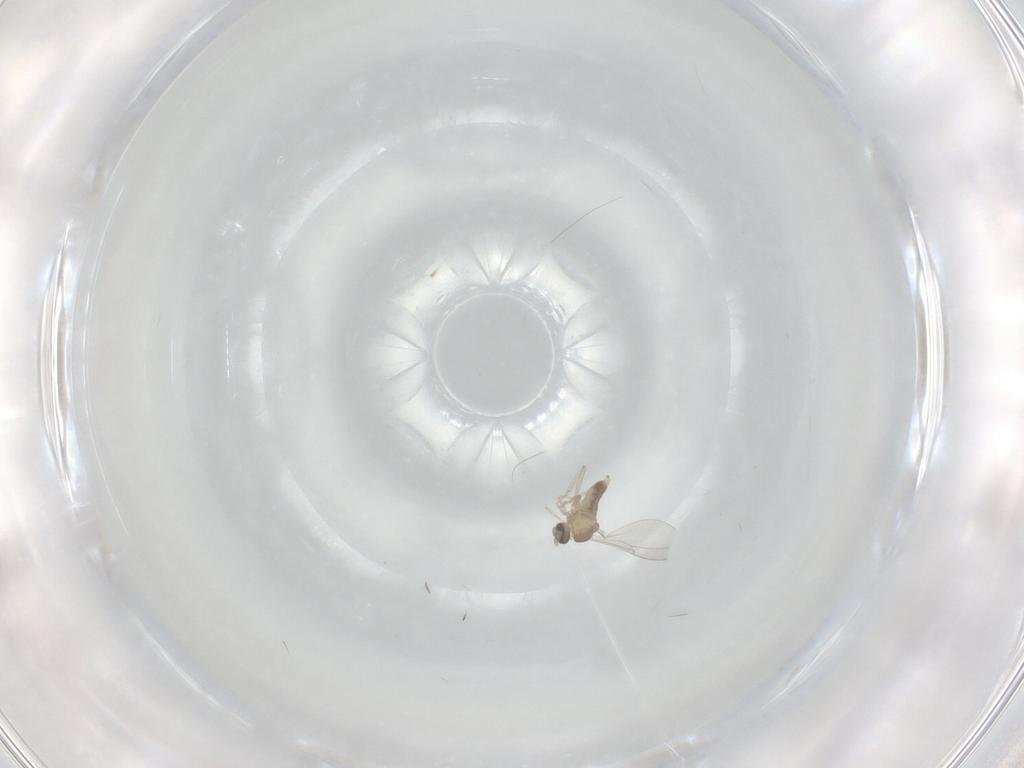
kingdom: Animalia
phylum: Arthropoda
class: Insecta
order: Diptera
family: Cecidomyiidae
